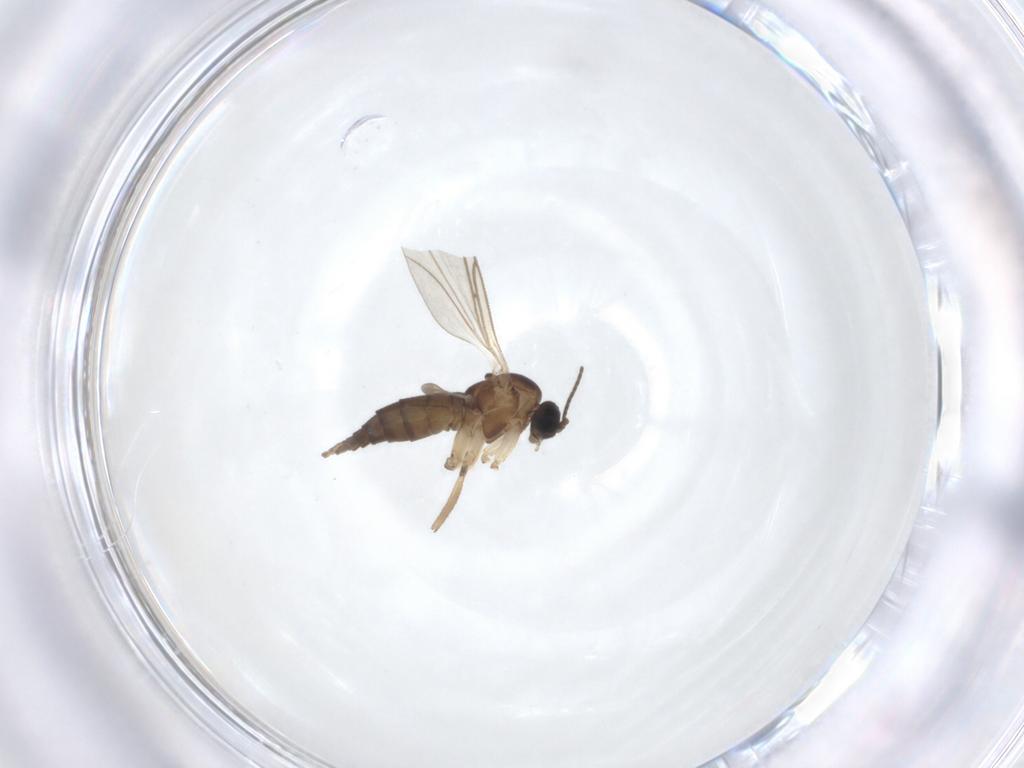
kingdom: Animalia
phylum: Arthropoda
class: Insecta
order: Diptera
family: Sciaridae
